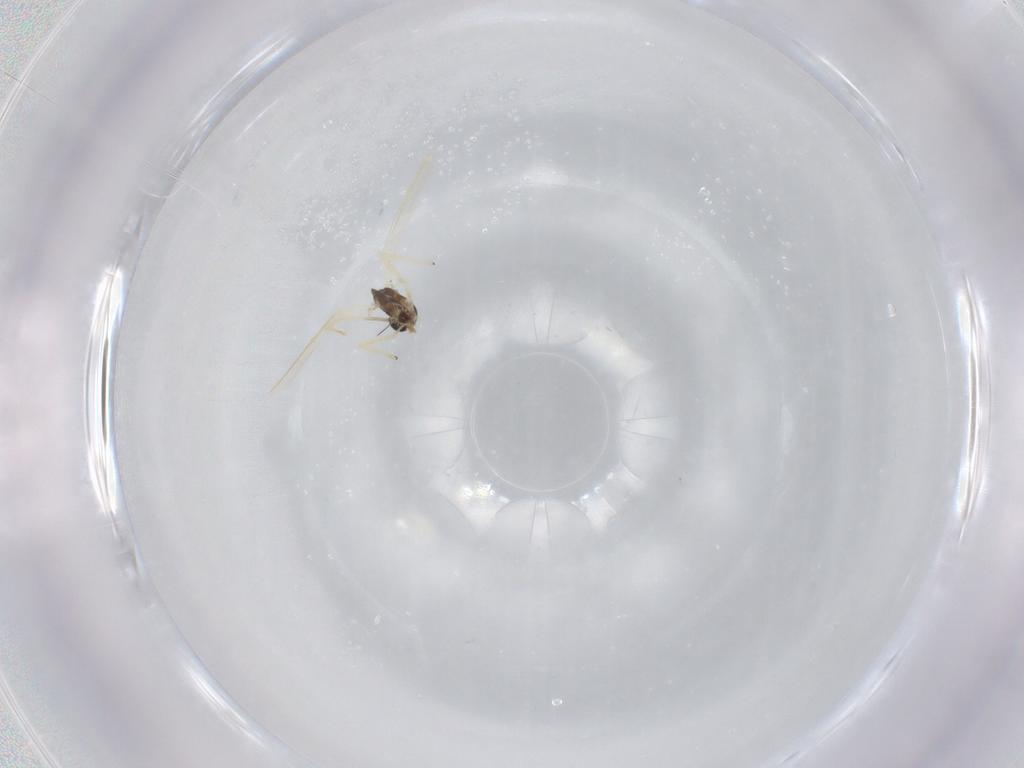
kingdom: Animalia
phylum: Arthropoda
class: Insecta
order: Diptera
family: Chironomidae
